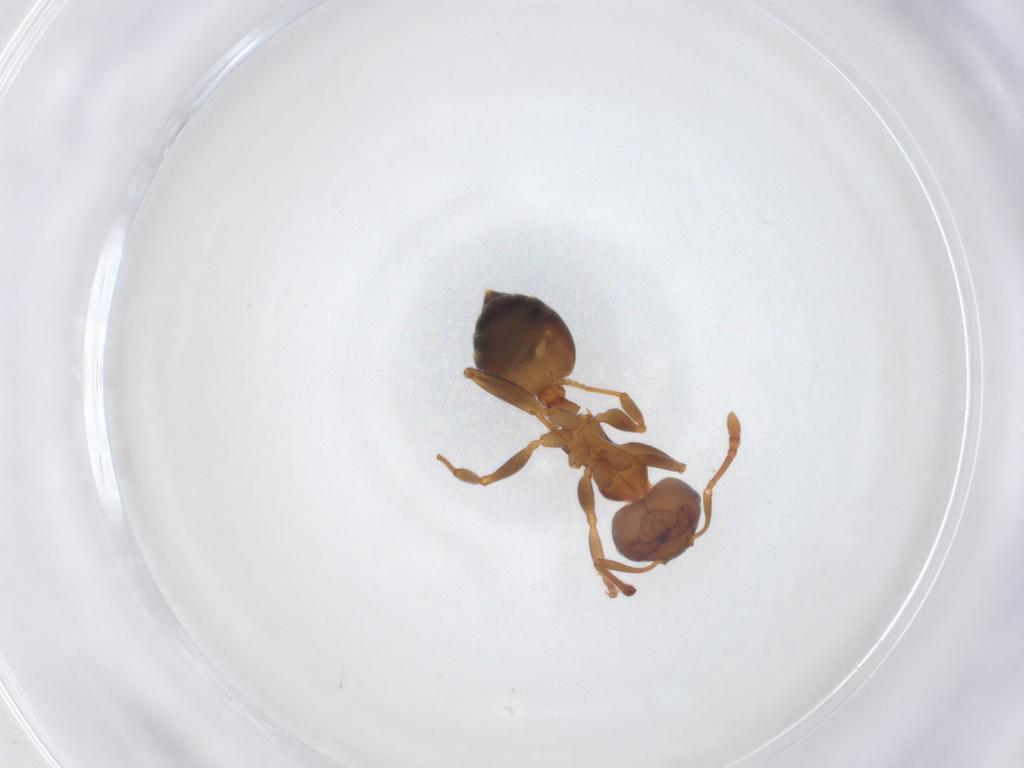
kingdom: Animalia
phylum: Arthropoda
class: Insecta
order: Hymenoptera
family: Formicidae
